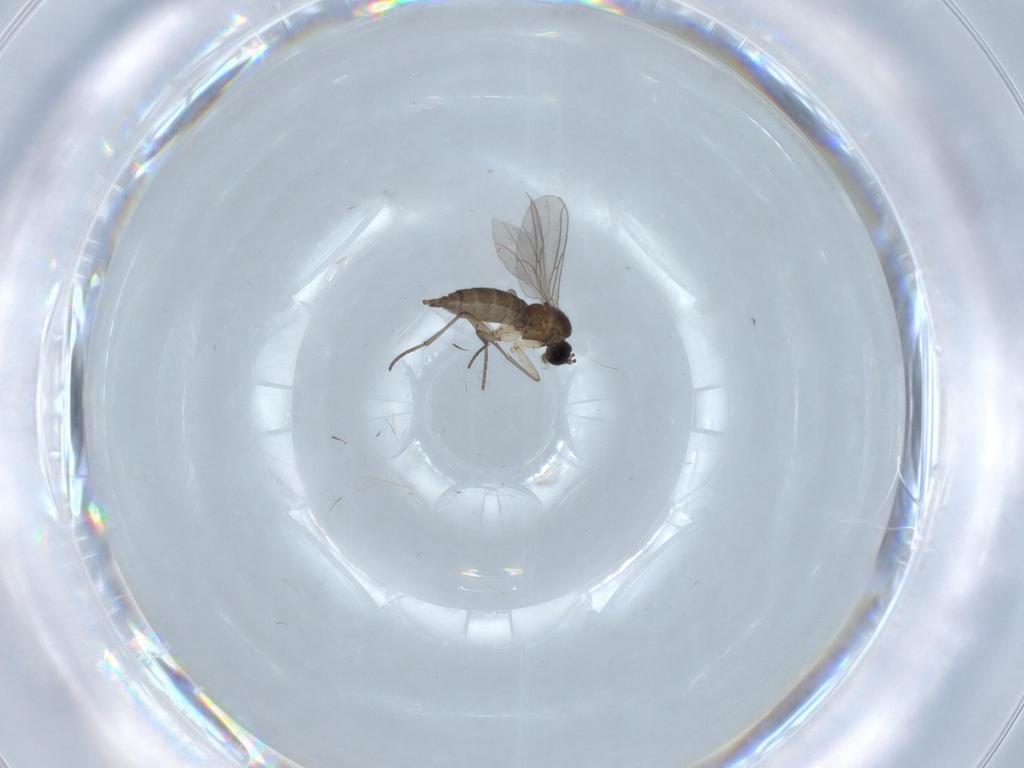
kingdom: Animalia
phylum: Arthropoda
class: Insecta
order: Diptera
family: Sciaridae
